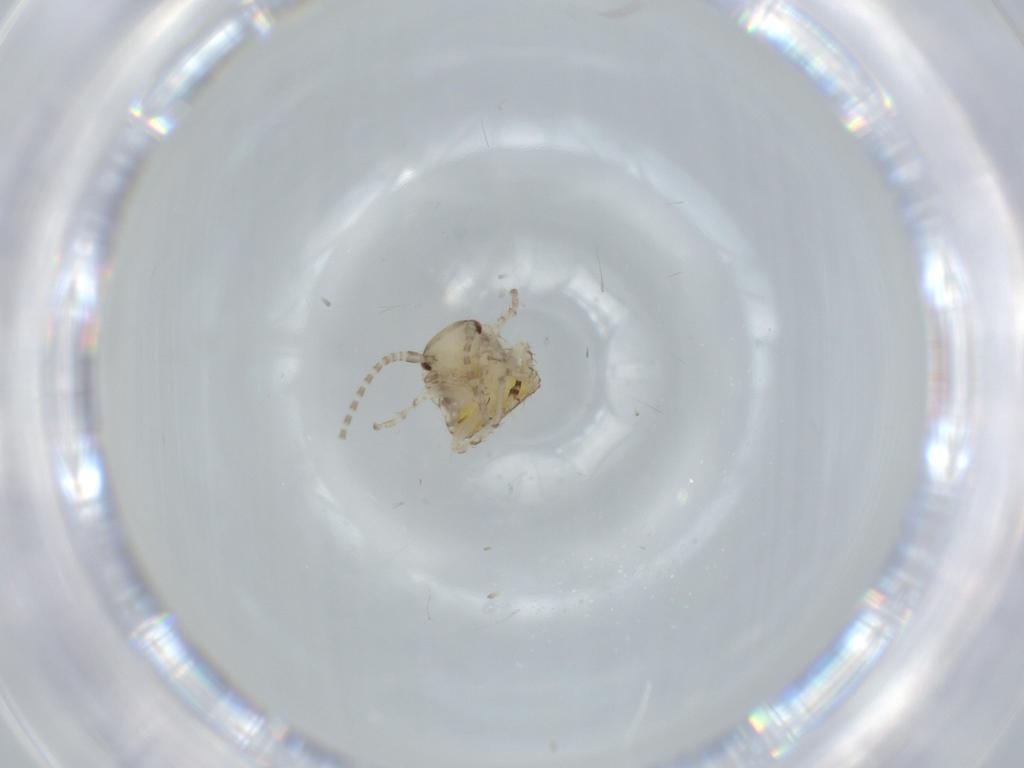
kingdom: Animalia
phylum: Arthropoda
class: Insecta
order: Blattodea
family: Ectobiidae
